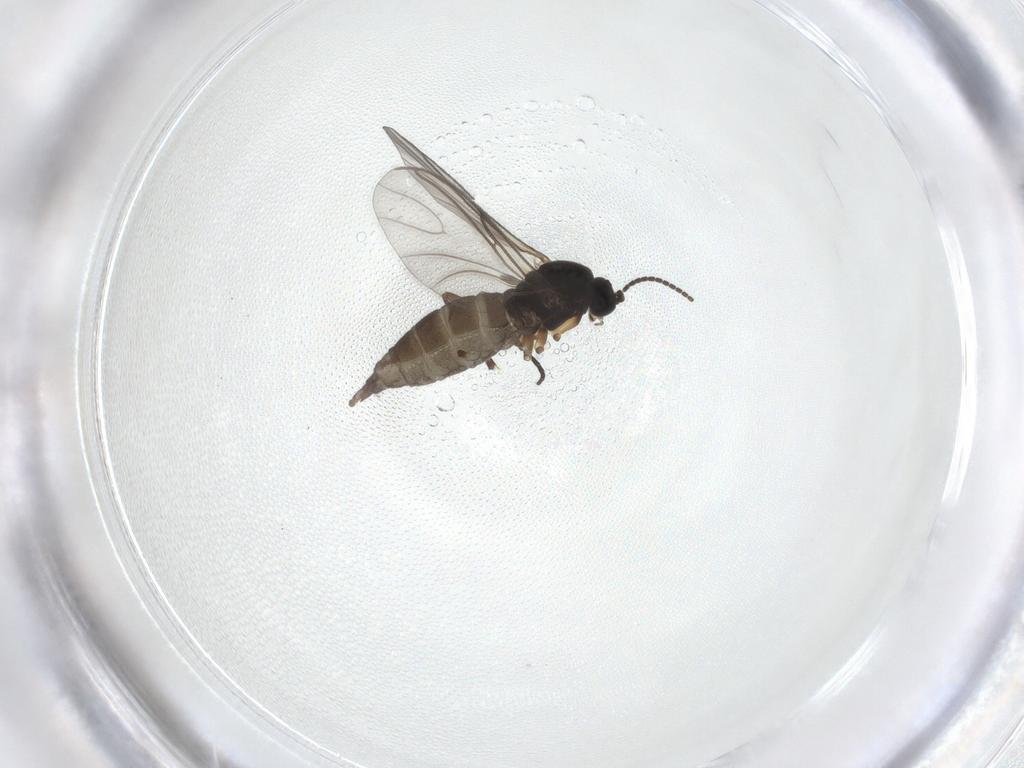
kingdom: Animalia
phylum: Arthropoda
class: Insecta
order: Diptera
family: Sciaridae
